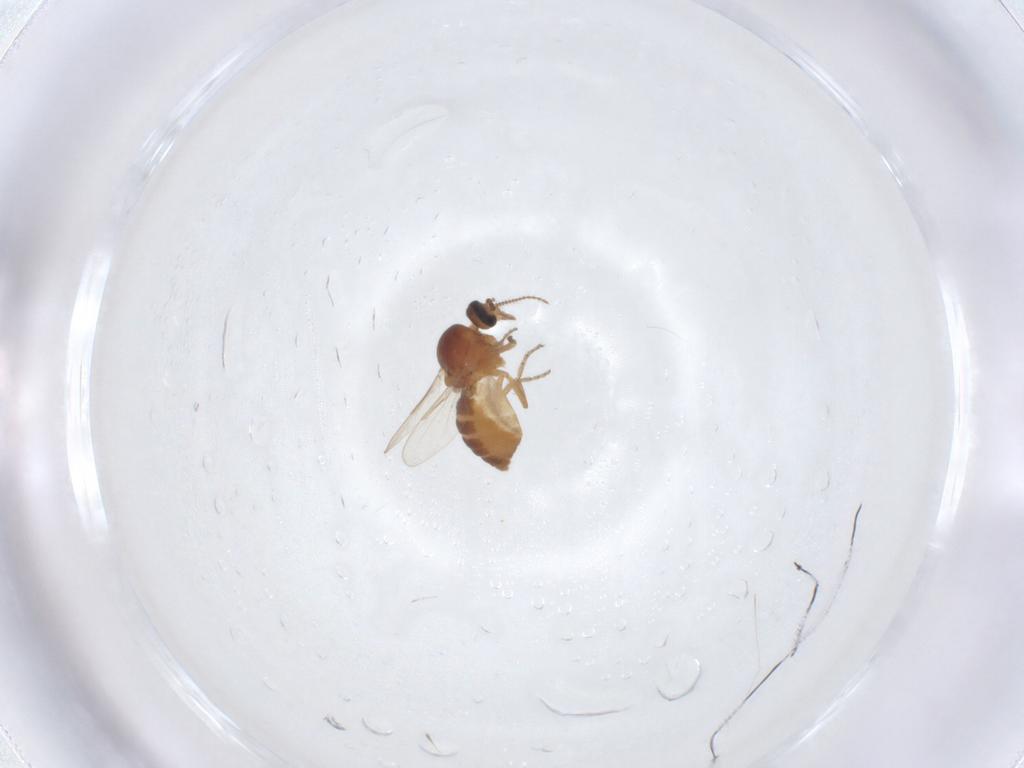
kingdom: Animalia
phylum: Arthropoda
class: Insecta
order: Diptera
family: Ceratopogonidae
